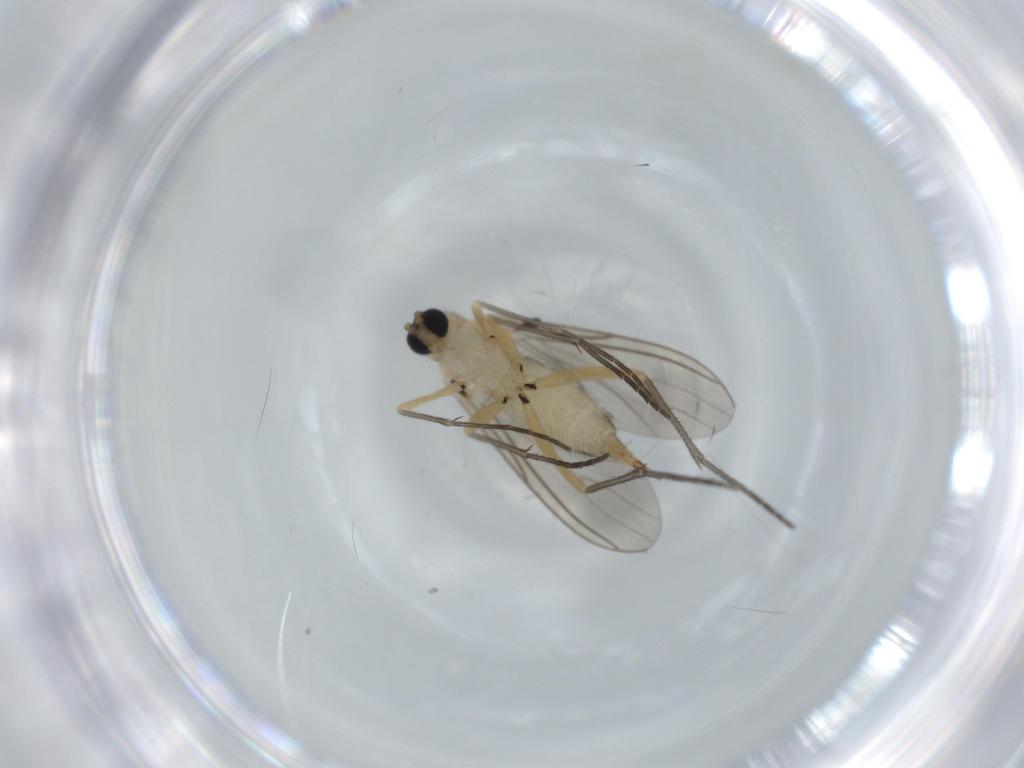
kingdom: Animalia
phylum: Arthropoda
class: Insecta
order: Diptera
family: Sciaridae
